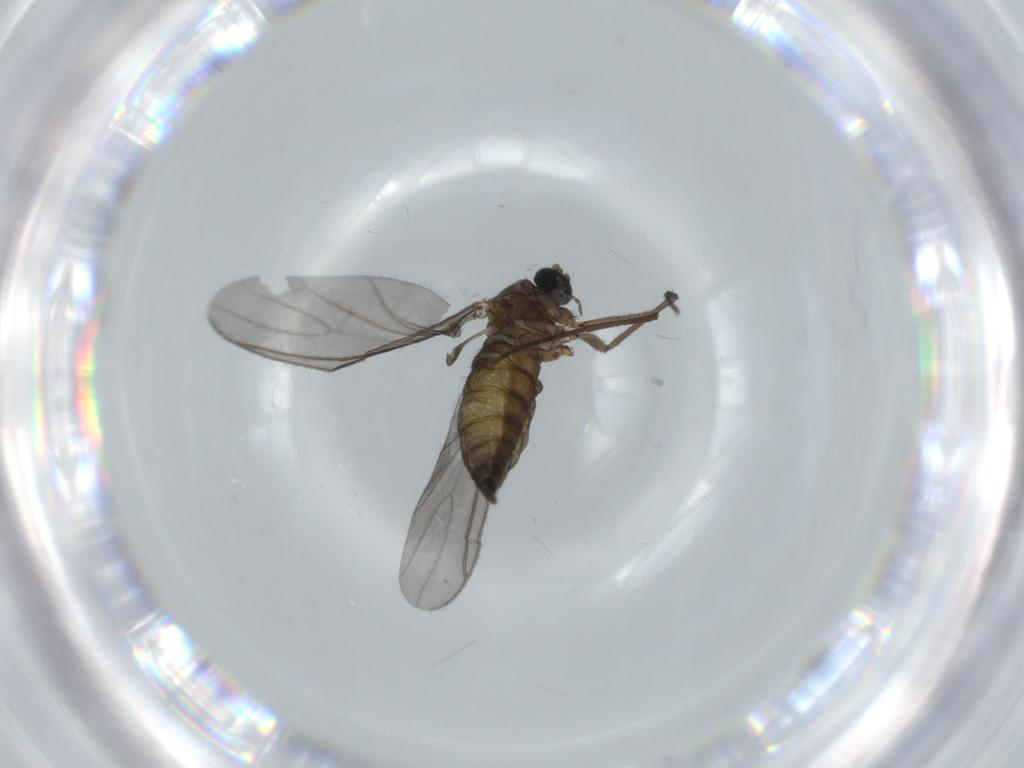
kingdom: Animalia
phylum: Arthropoda
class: Insecta
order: Diptera
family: Sciaridae
